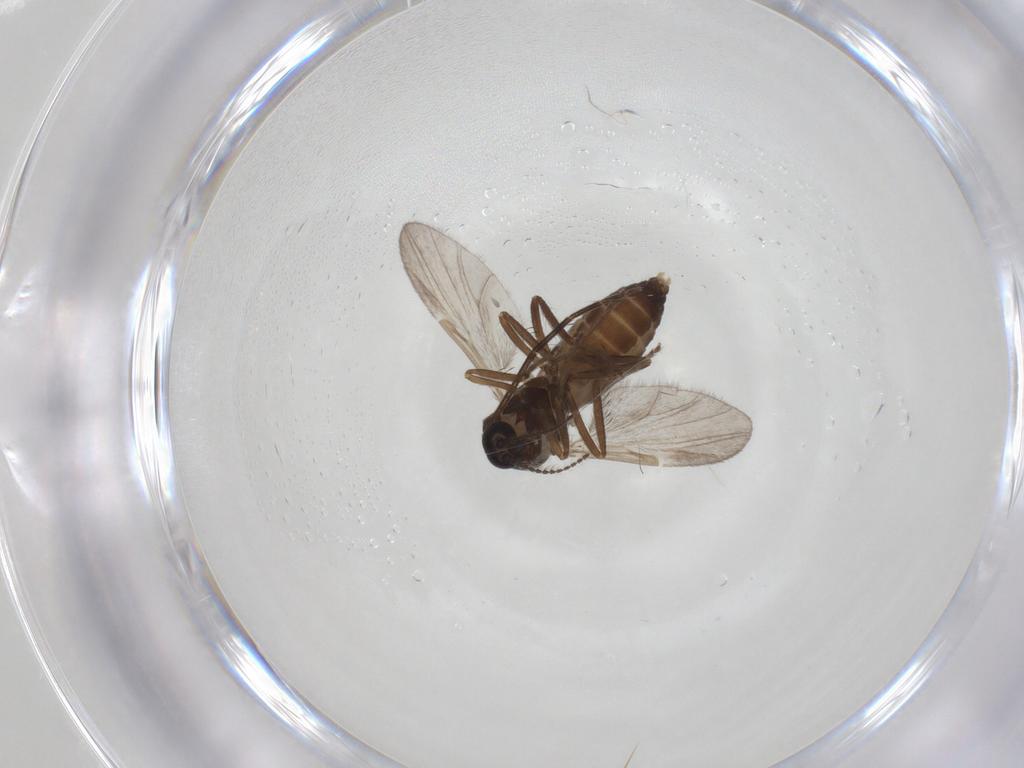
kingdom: Animalia
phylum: Arthropoda
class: Insecta
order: Diptera
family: Ceratopogonidae
